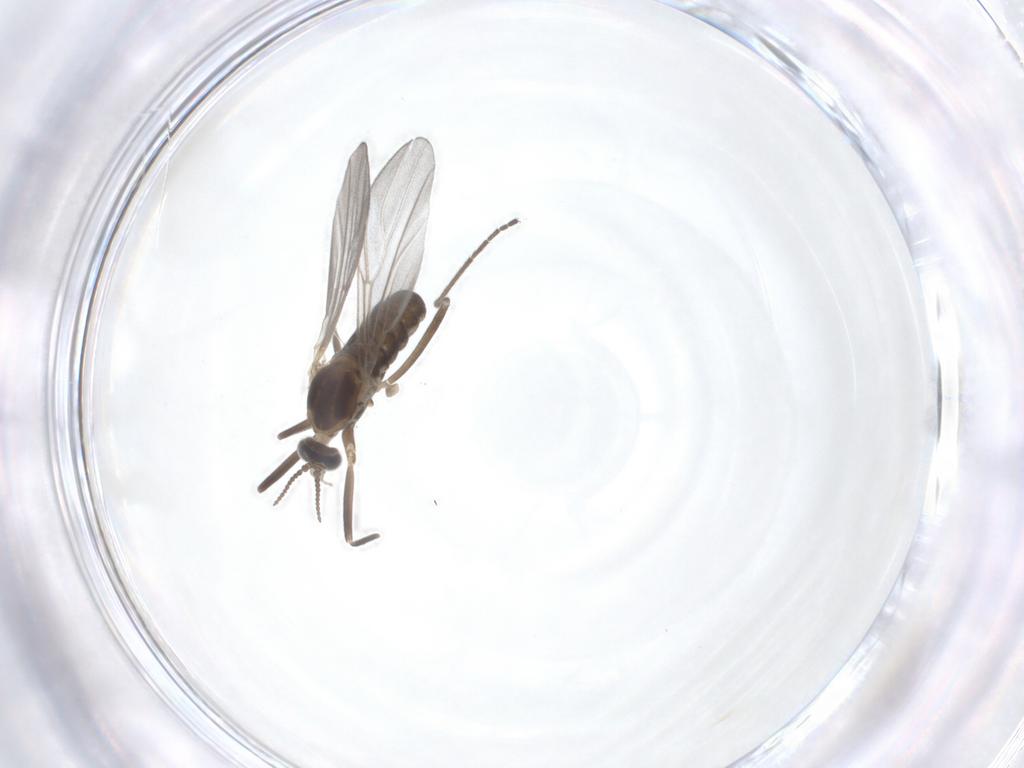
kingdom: Animalia
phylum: Arthropoda
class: Insecta
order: Diptera
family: Cecidomyiidae
